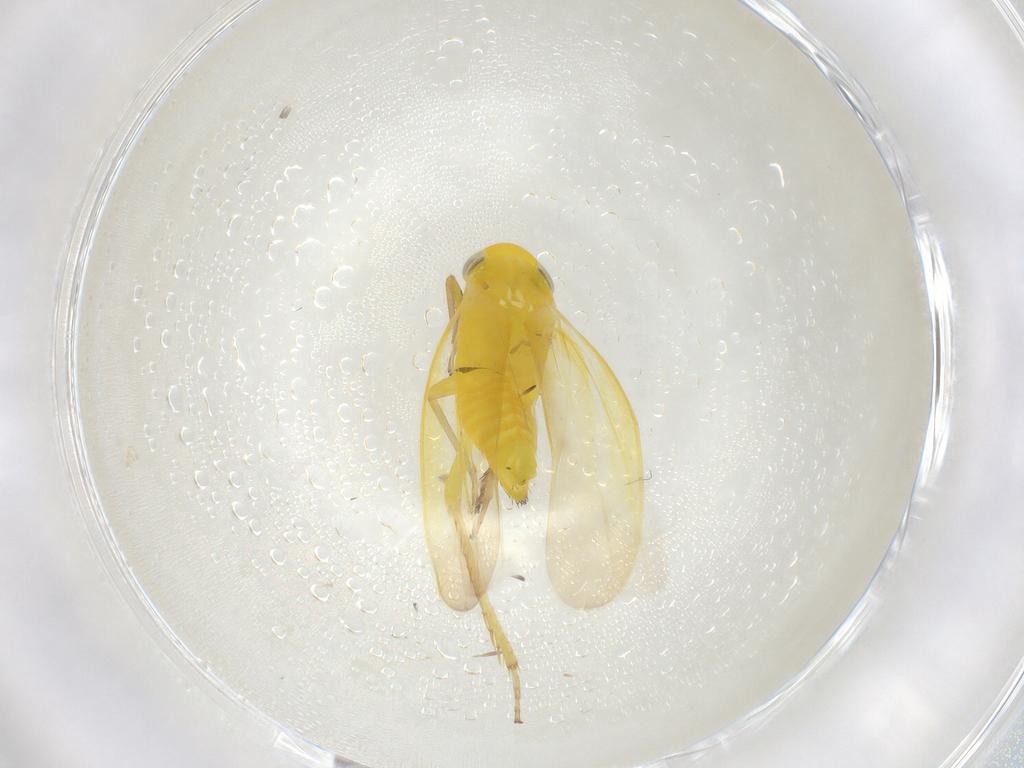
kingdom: Animalia
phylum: Arthropoda
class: Insecta
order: Hemiptera
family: Cicadellidae
